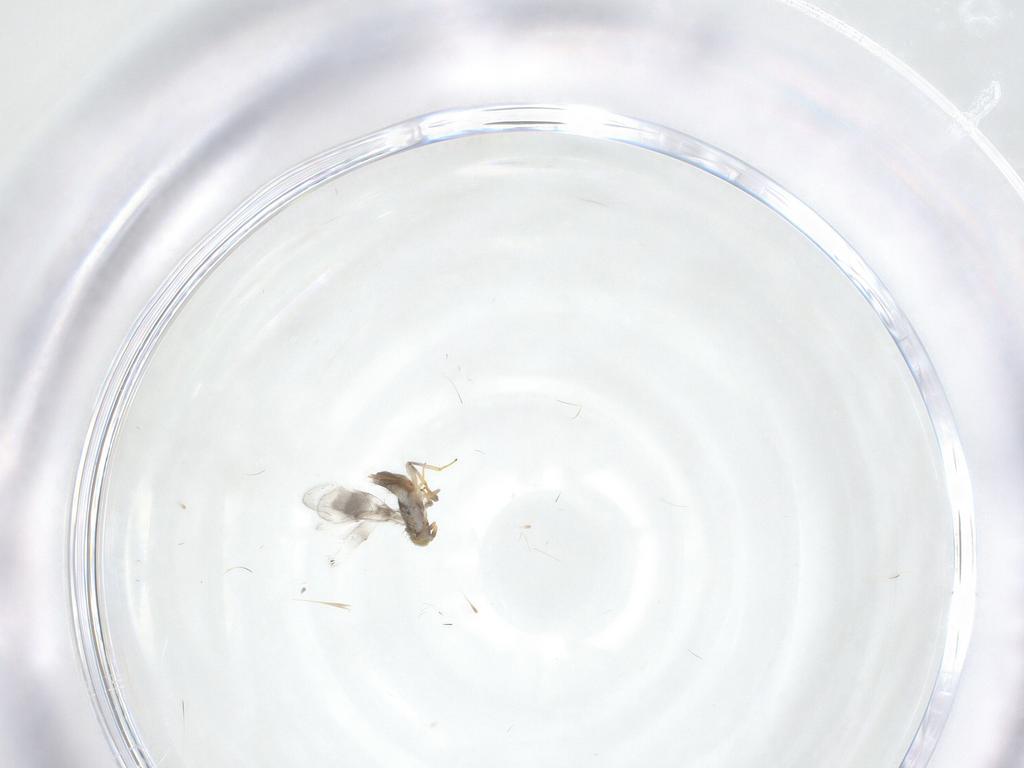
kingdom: Animalia
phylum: Arthropoda
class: Insecta
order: Hymenoptera
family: Aphelinidae
